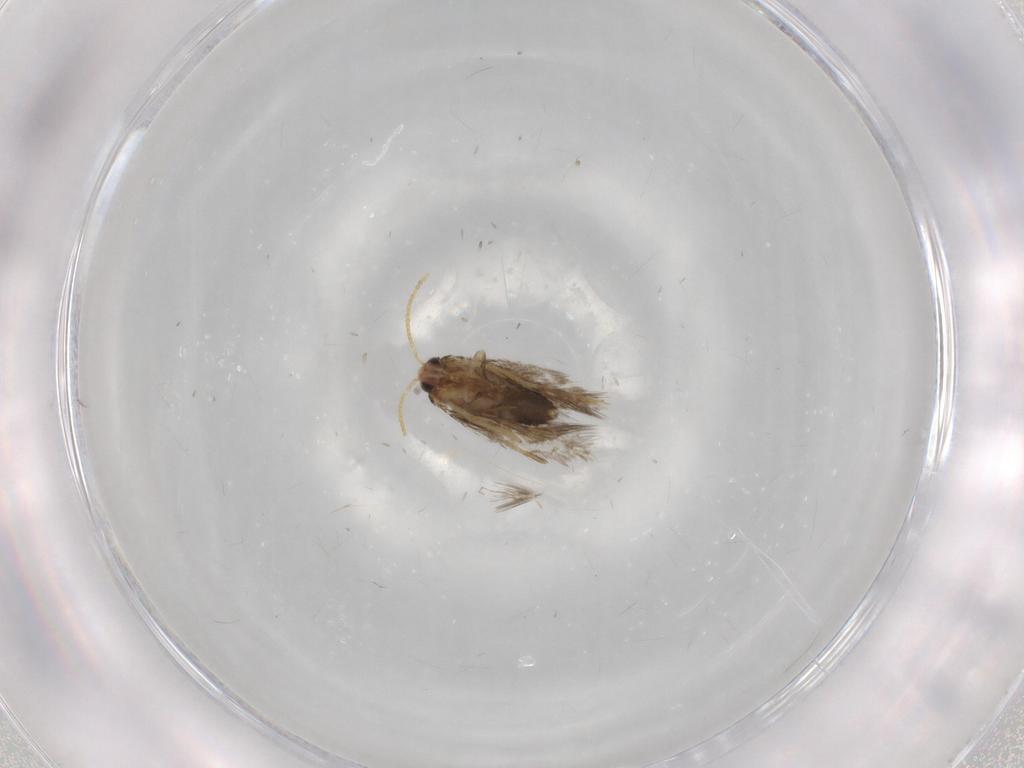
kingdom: Animalia
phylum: Arthropoda
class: Insecta
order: Lepidoptera
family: Copromorphidae
